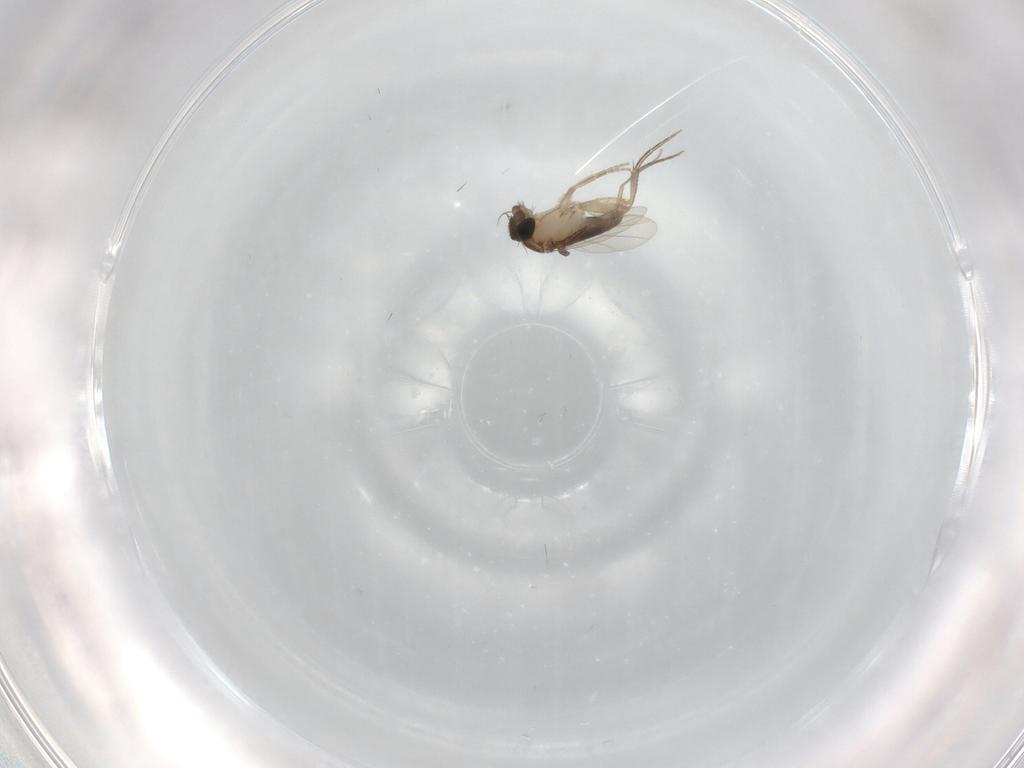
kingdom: Animalia
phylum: Arthropoda
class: Insecta
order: Diptera
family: Phoridae
